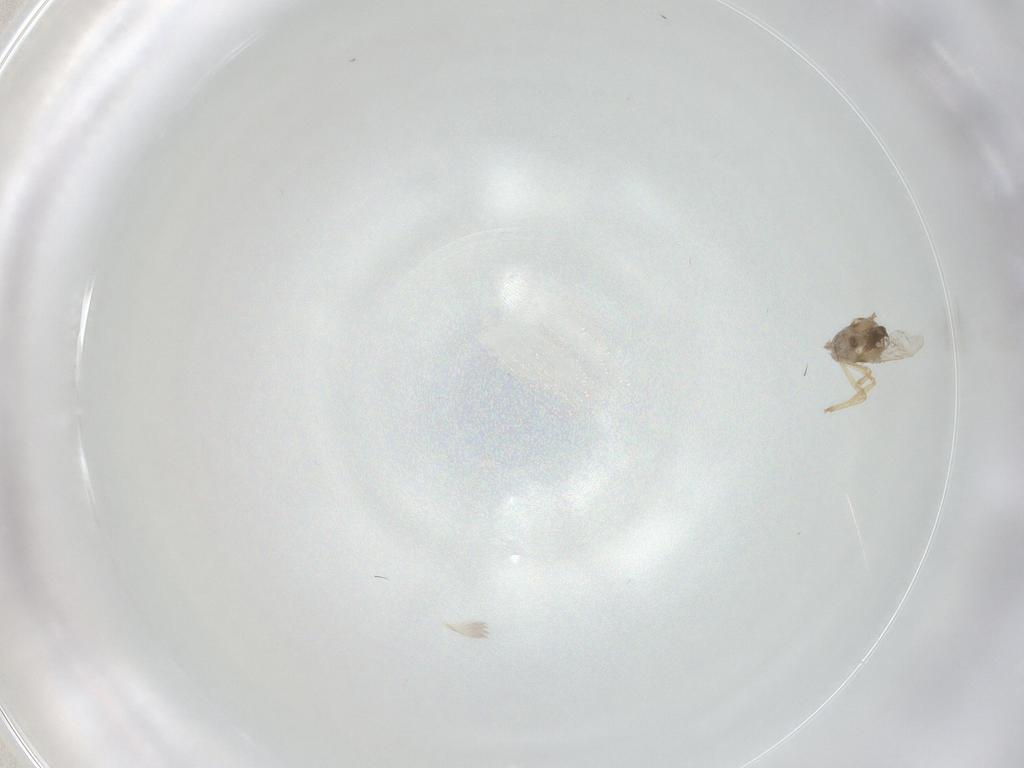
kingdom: Animalia
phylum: Arthropoda
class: Insecta
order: Diptera
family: Ceratopogonidae
